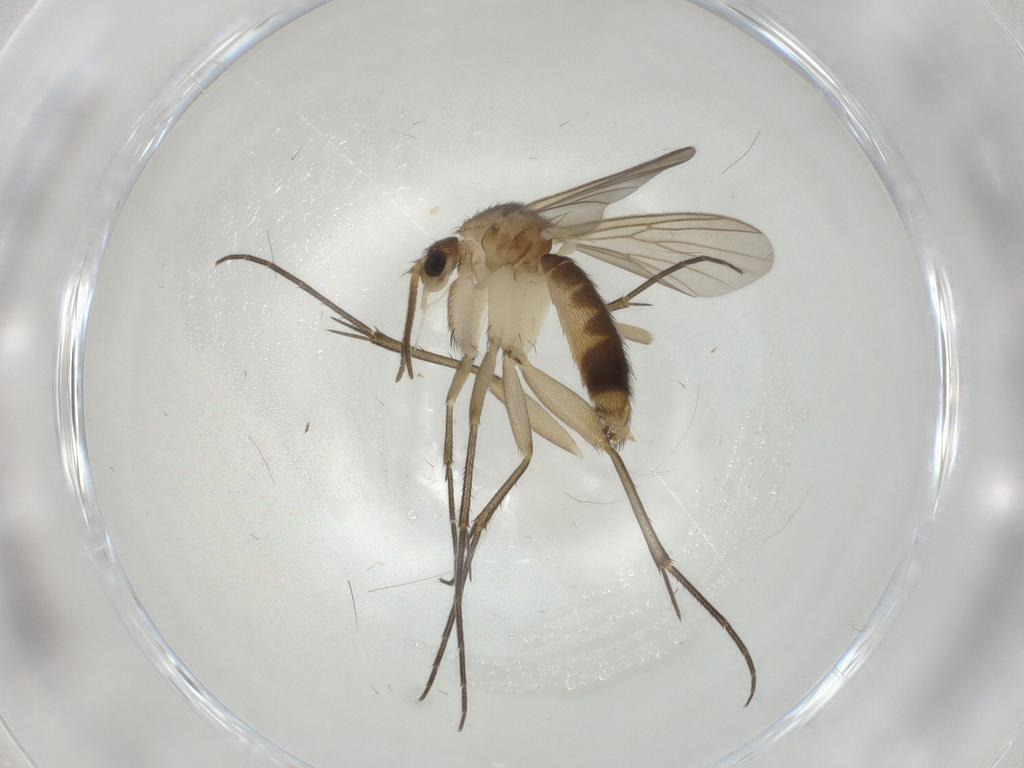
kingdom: Animalia
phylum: Arthropoda
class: Insecta
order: Diptera
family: Mycetophilidae
